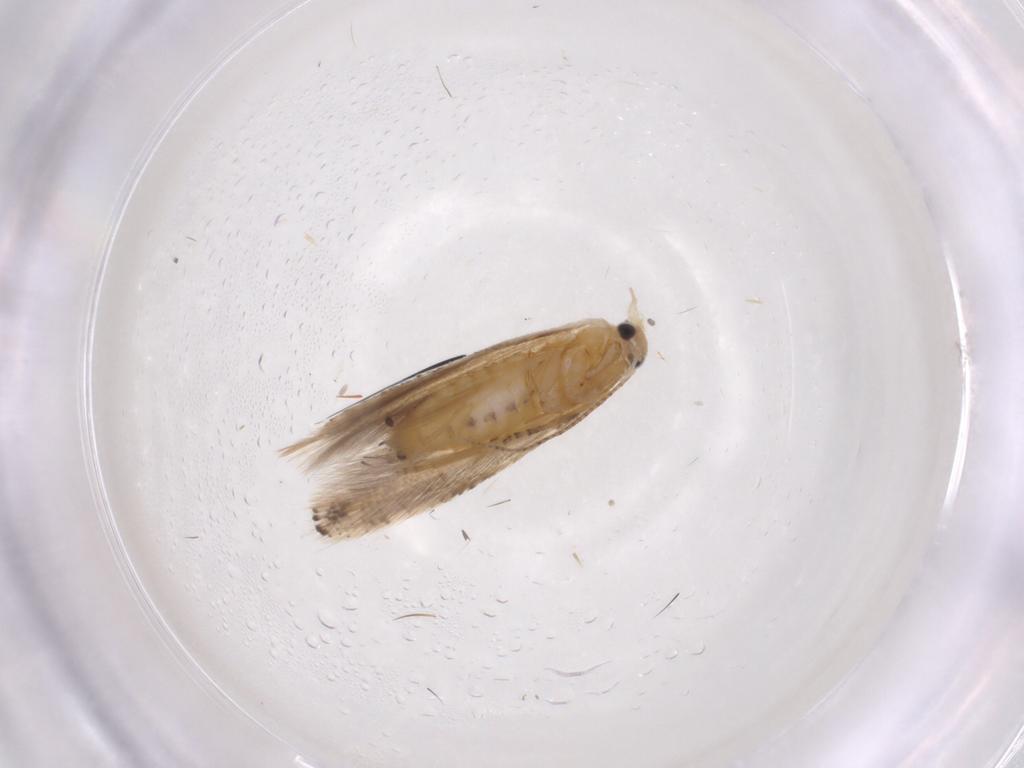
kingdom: Animalia
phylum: Arthropoda
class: Insecta
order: Lepidoptera
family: Bucculatricidae
